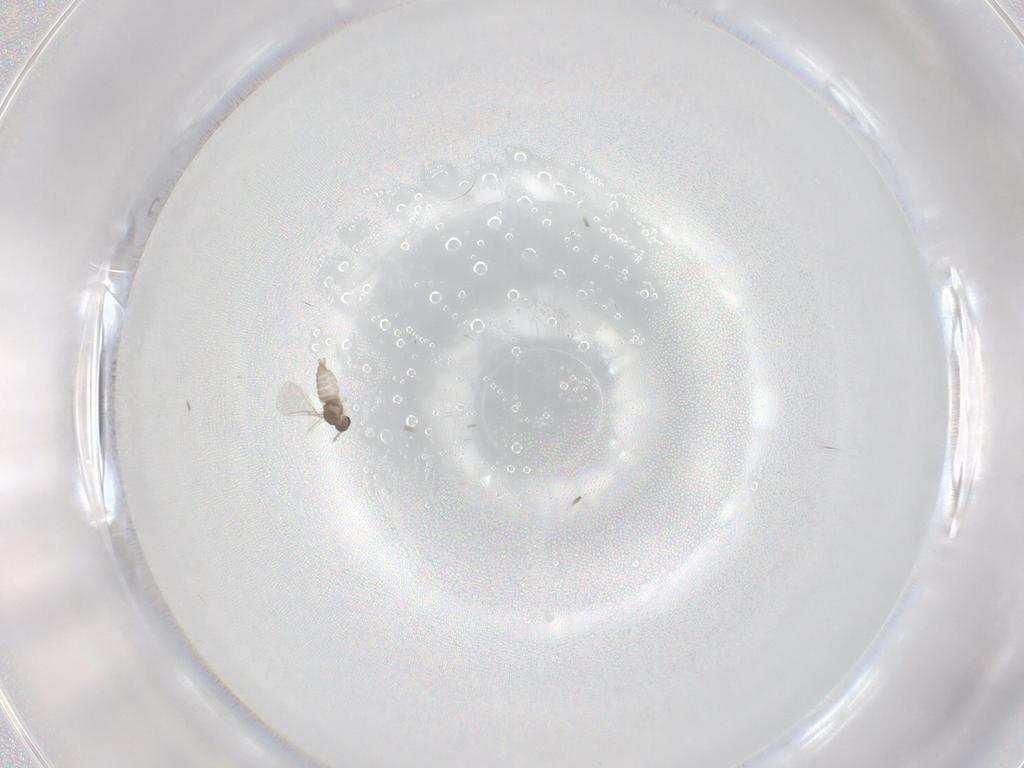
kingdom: Animalia
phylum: Arthropoda
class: Insecta
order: Diptera
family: Cecidomyiidae
